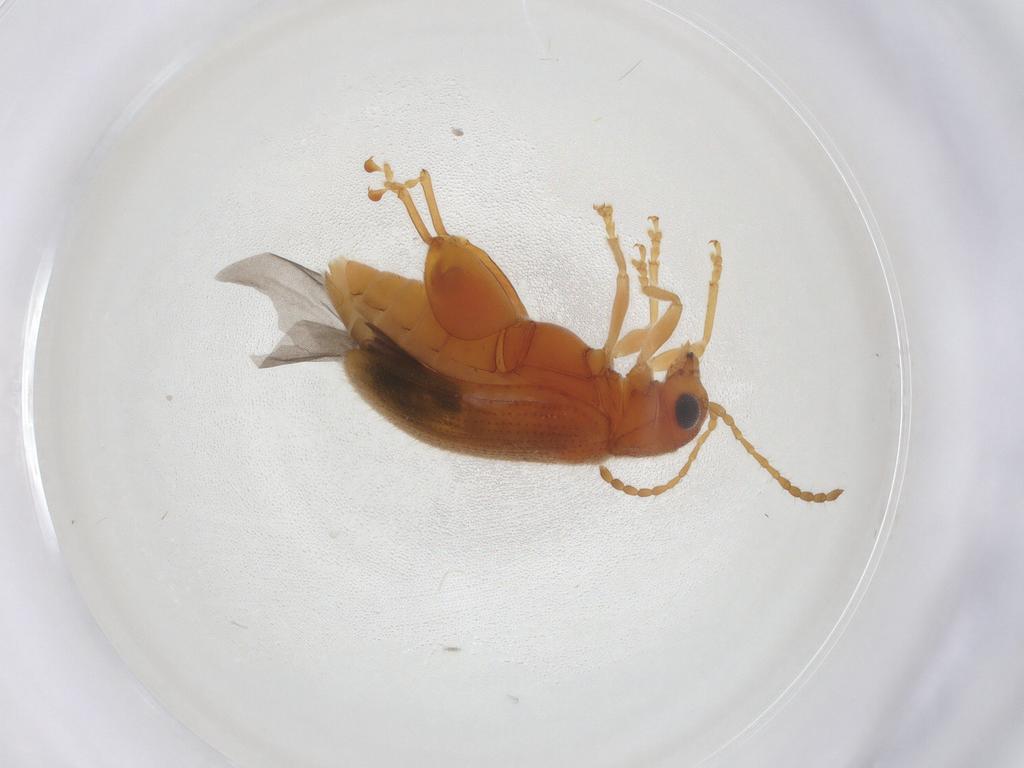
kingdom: Animalia
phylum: Arthropoda
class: Insecta
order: Coleoptera
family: Chrysomelidae
